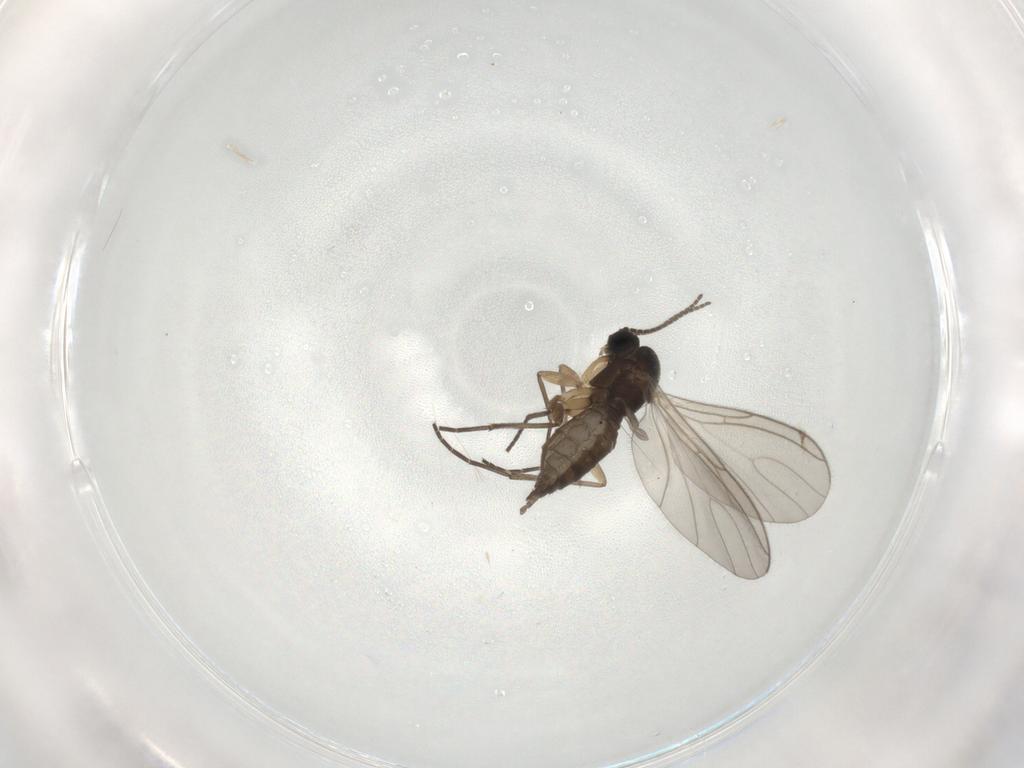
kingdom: Animalia
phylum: Arthropoda
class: Insecta
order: Diptera
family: Sciaridae
